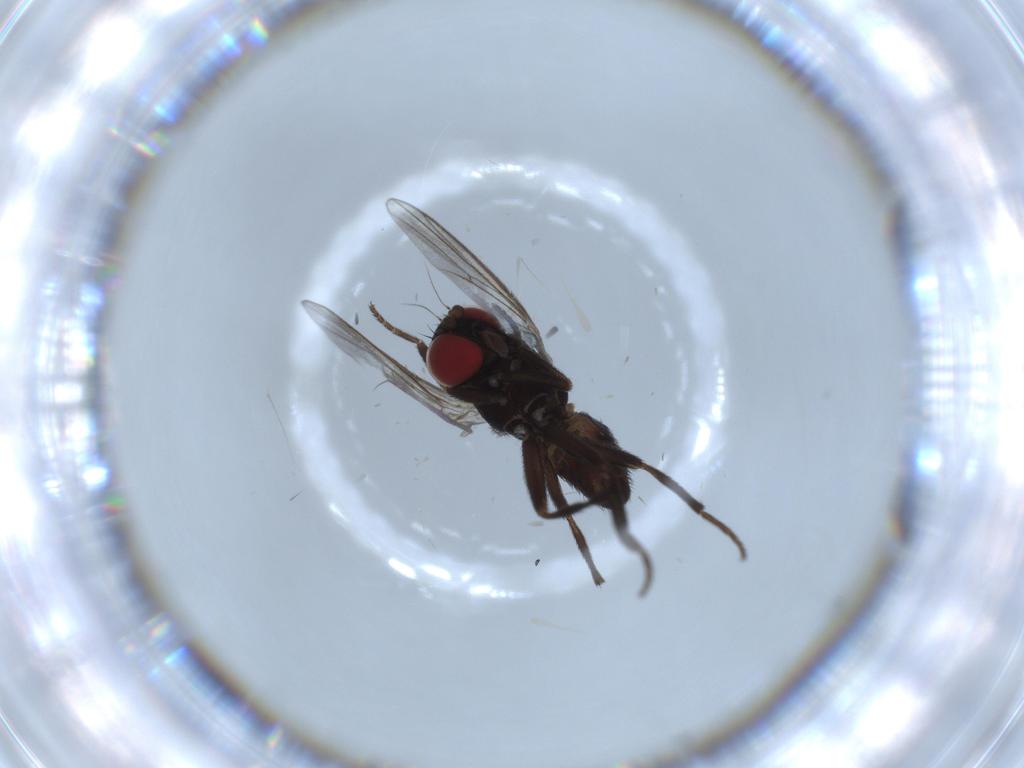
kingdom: Animalia
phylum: Arthropoda
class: Insecta
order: Diptera
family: Agromyzidae
